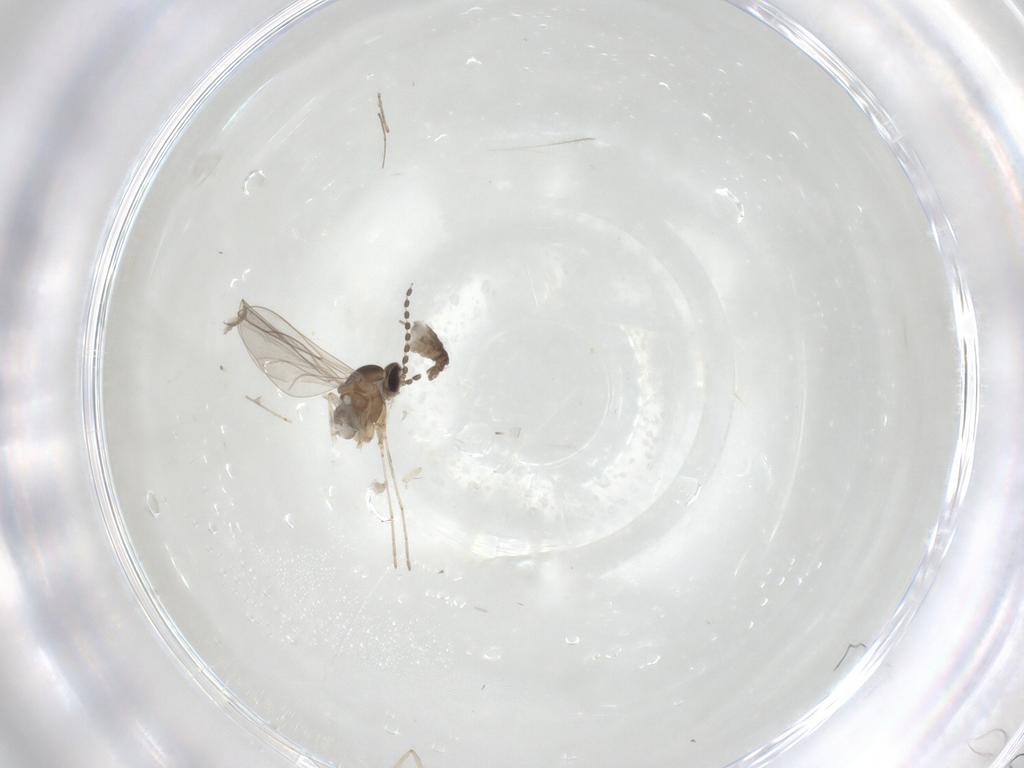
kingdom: Animalia
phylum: Arthropoda
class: Insecta
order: Diptera
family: Cecidomyiidae
